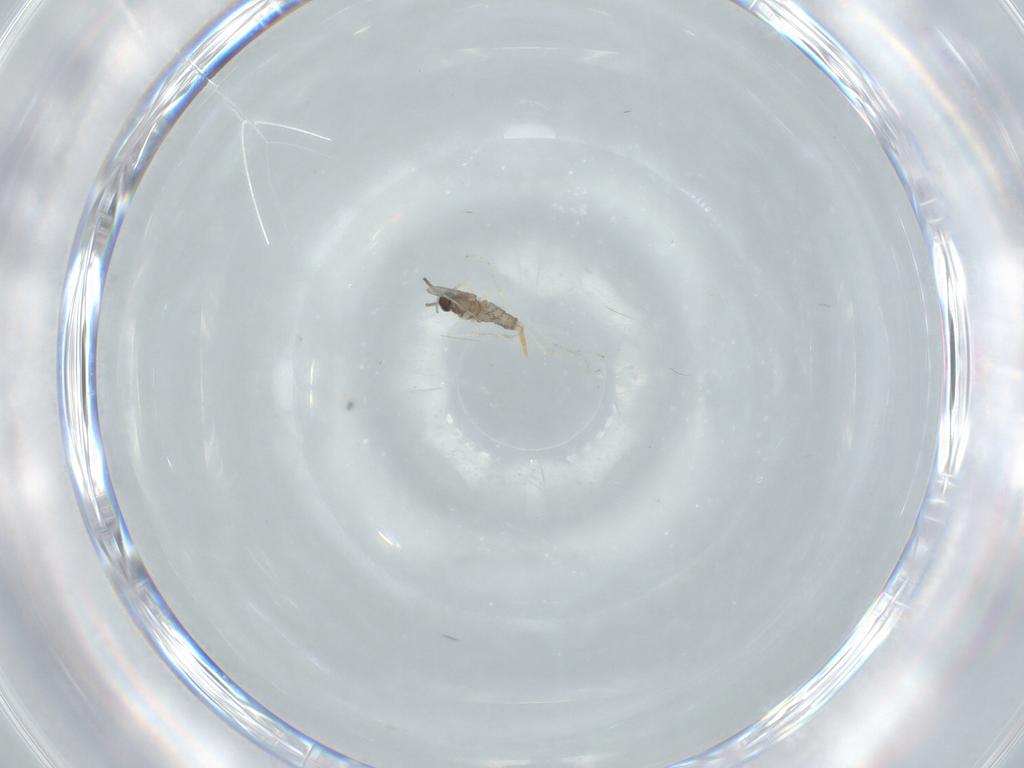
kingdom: Animalia
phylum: Arthropoda
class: Insecta
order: Diptera
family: Cecidomyiidae
